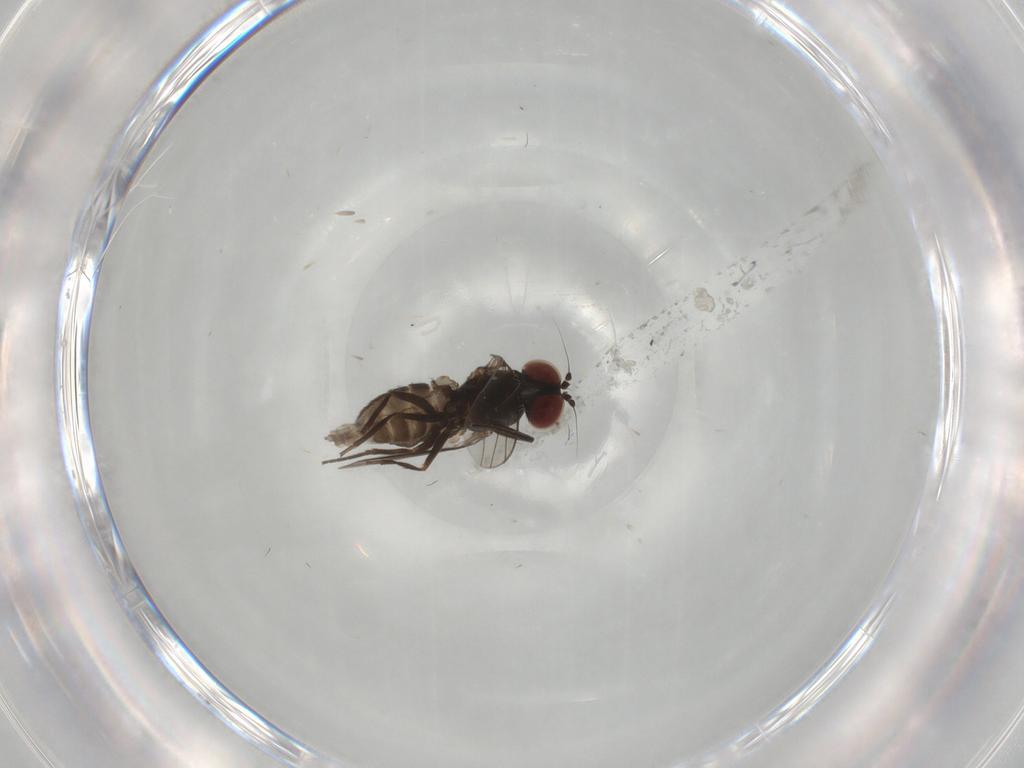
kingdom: Animalia
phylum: Arthropoda
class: Insecta
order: Diptera
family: Dolichopodidae
